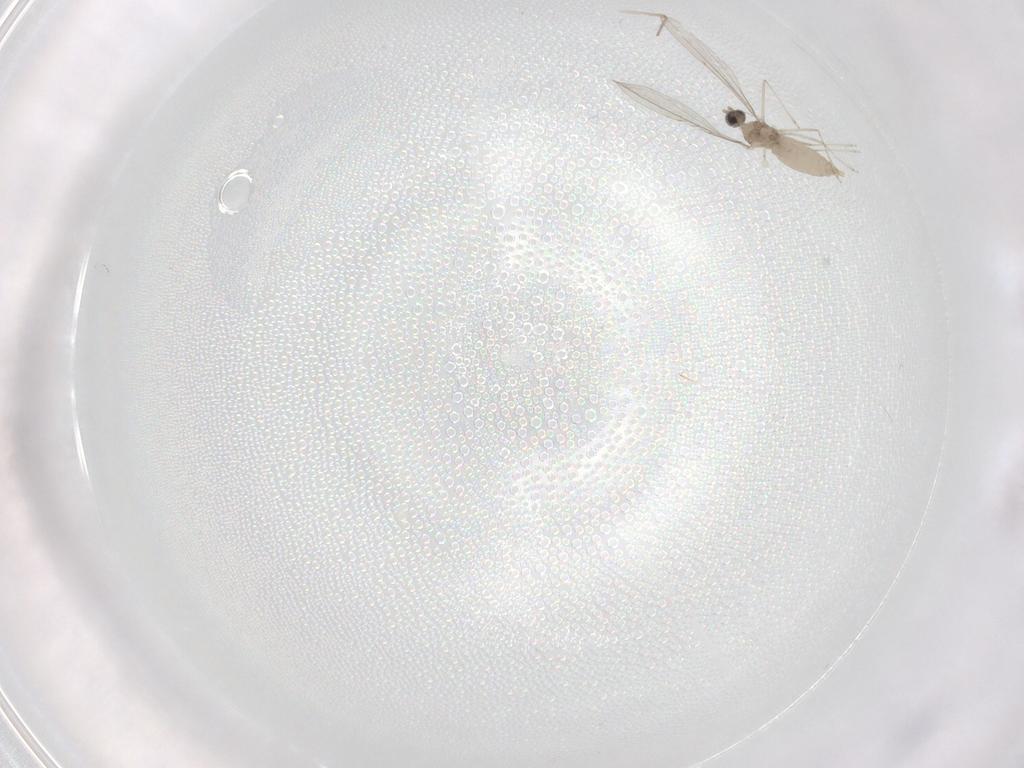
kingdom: Animalia
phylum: Arthropoda
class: Insecta
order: Diptera
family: Cecidomyiidae
